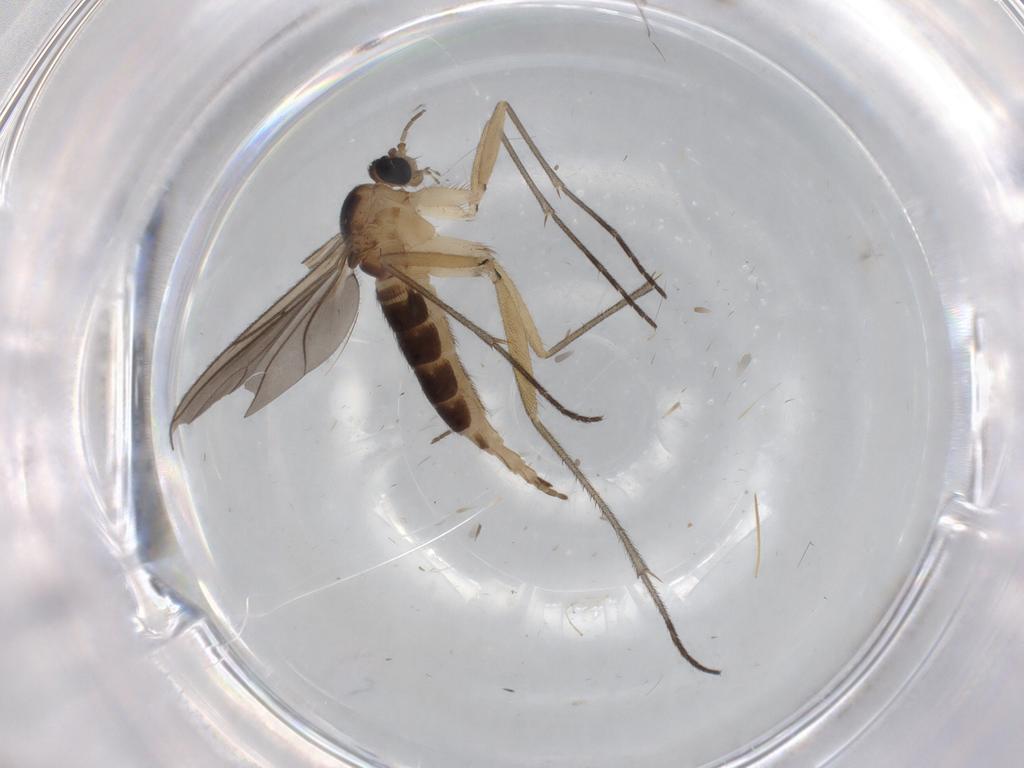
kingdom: Animalia
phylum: Arthropoda
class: Insecta
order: Diptera
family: Sciaridae
